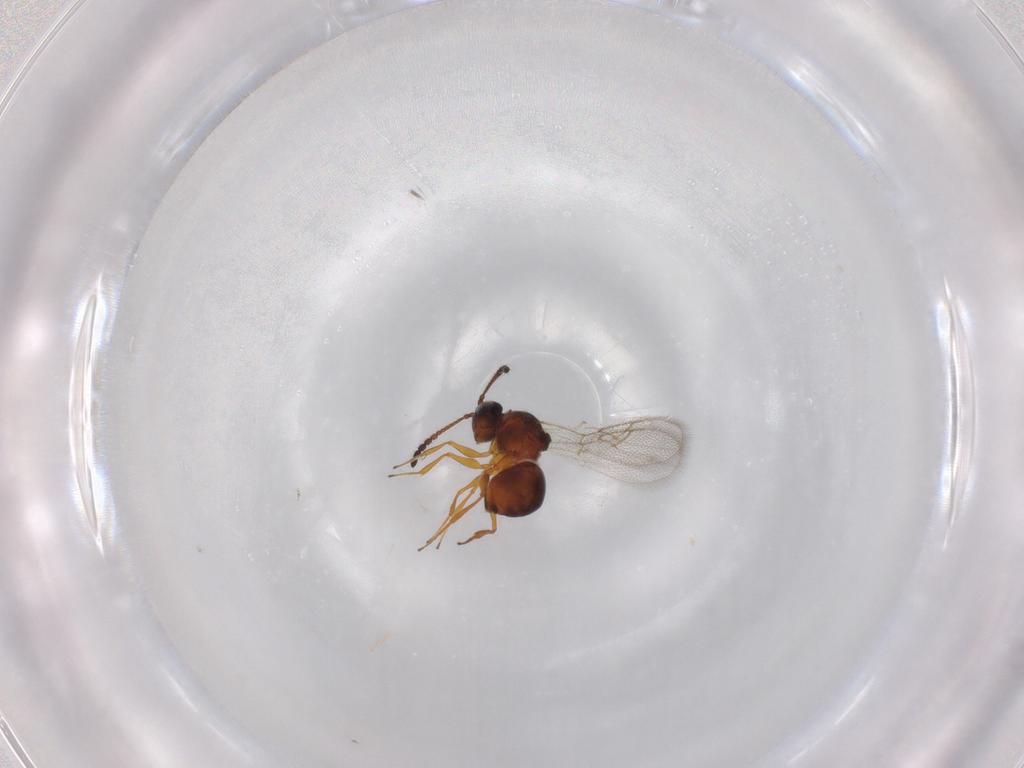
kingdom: Animalia
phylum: Arthropoda
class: Insecta
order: Hymenoptera
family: Figitidae
